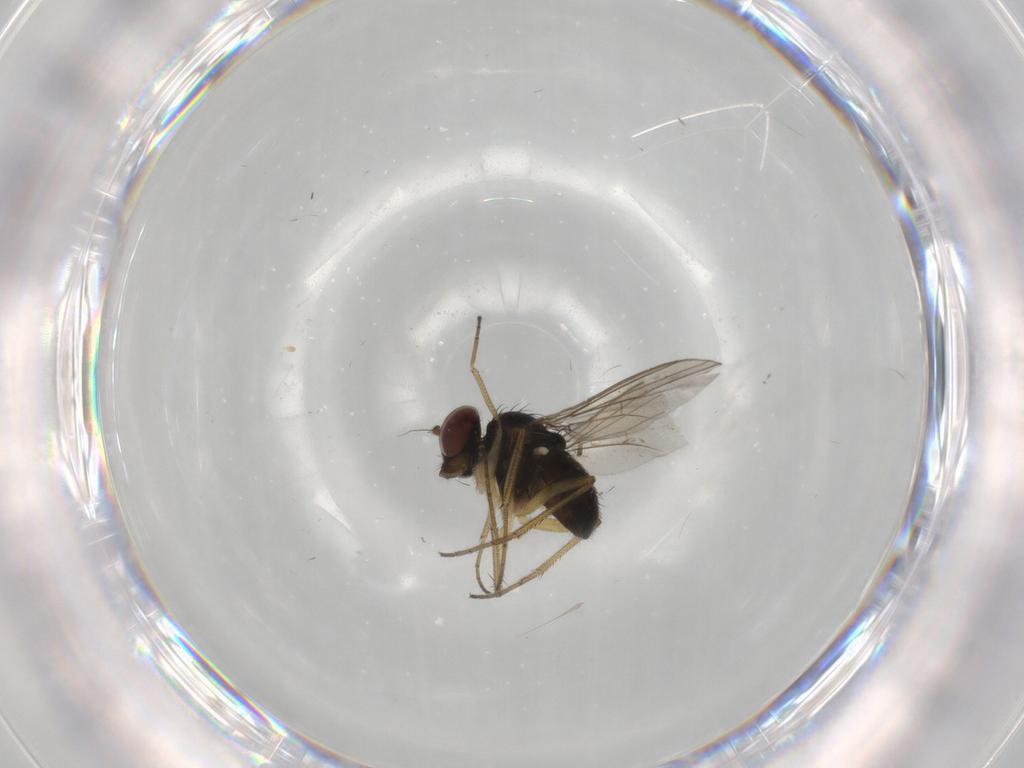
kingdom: Animalia
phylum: Arthropoda
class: Insecta
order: Diptera
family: Dolichopodidae
